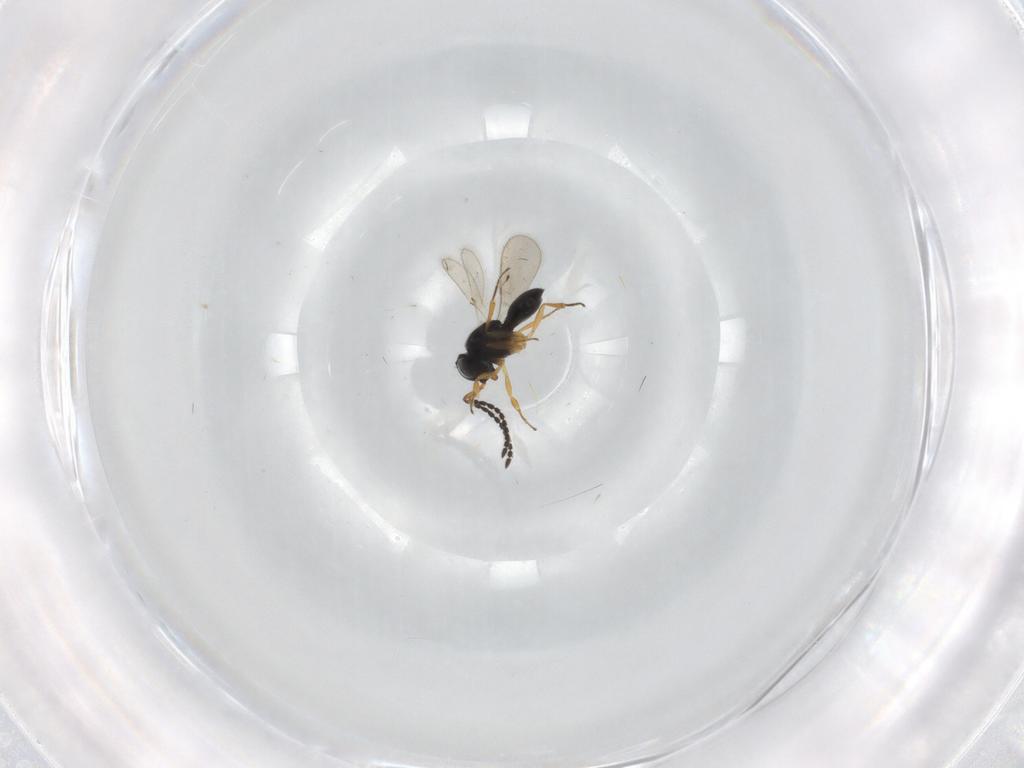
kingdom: Animalia
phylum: Arthropoda
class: Insecta
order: Hymenoptera
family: Scelionidae
